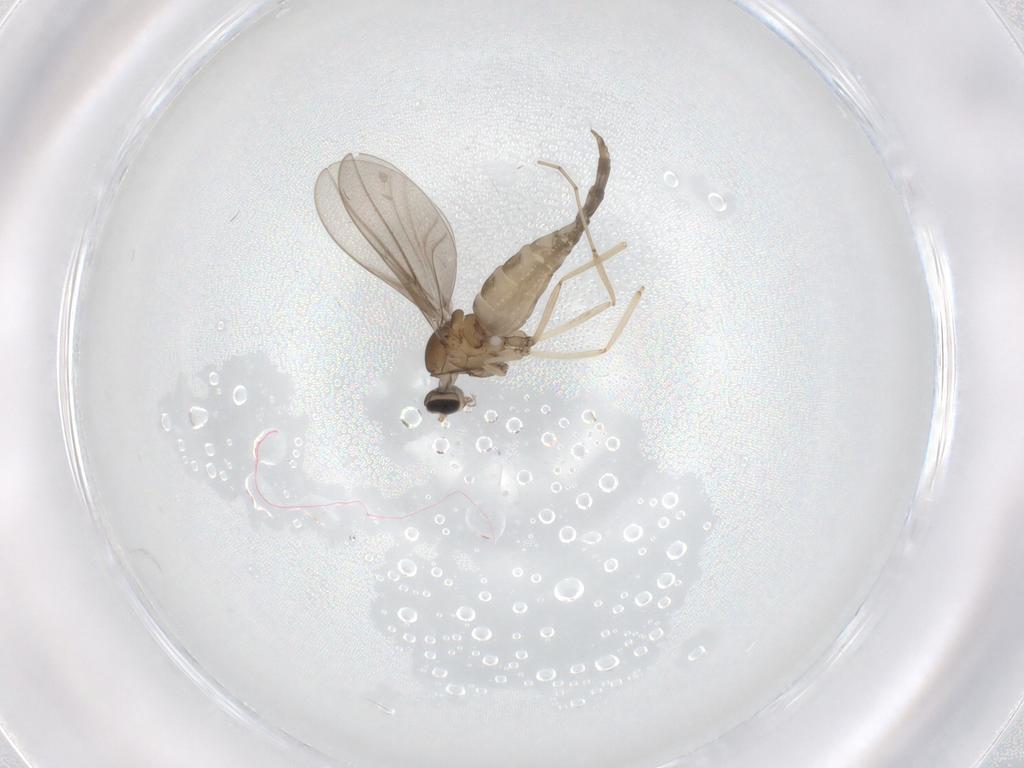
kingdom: Animalia
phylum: Arthropoda
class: Insecta
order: Diptera
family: Cecidomyiidae
